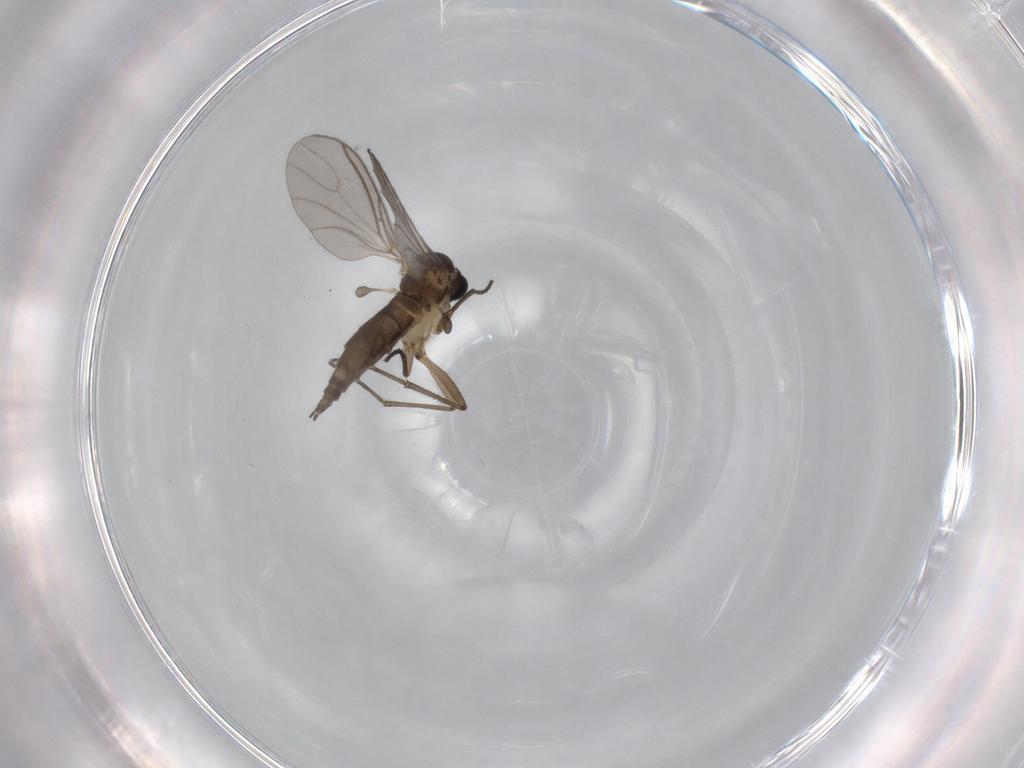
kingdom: Animalia
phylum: Arthropoda
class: Insecta
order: Diptera
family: Sciaridae
